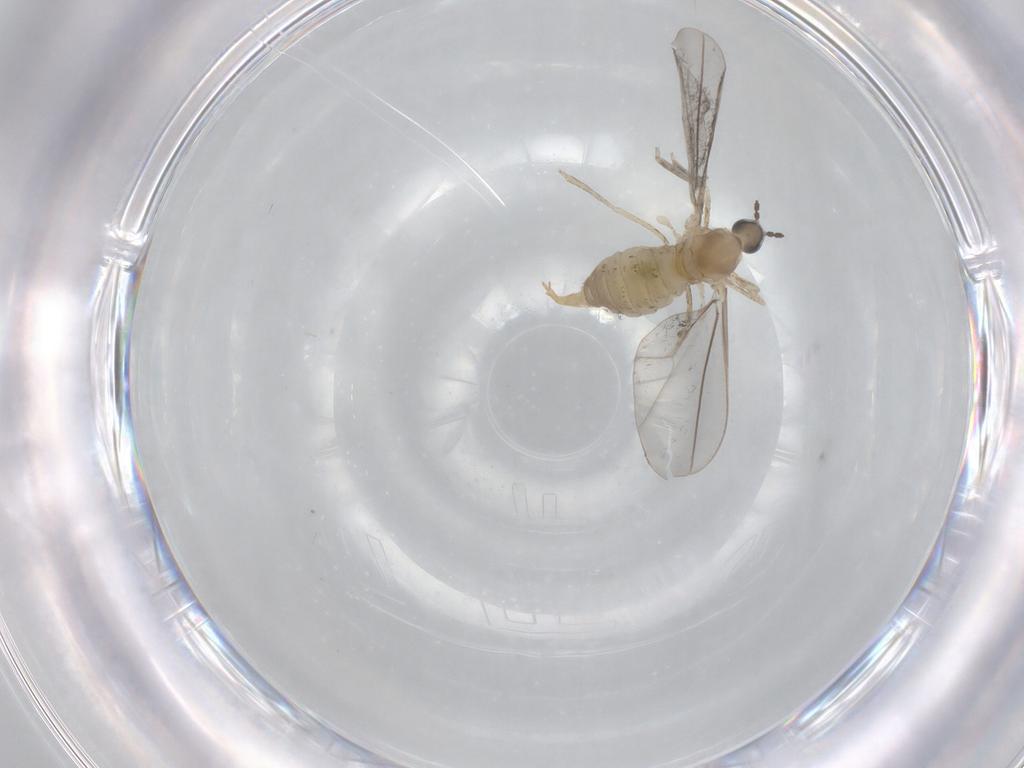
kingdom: Animalia
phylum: Arthropoda
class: Insecta
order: Diptera
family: Cecidomyiidae
